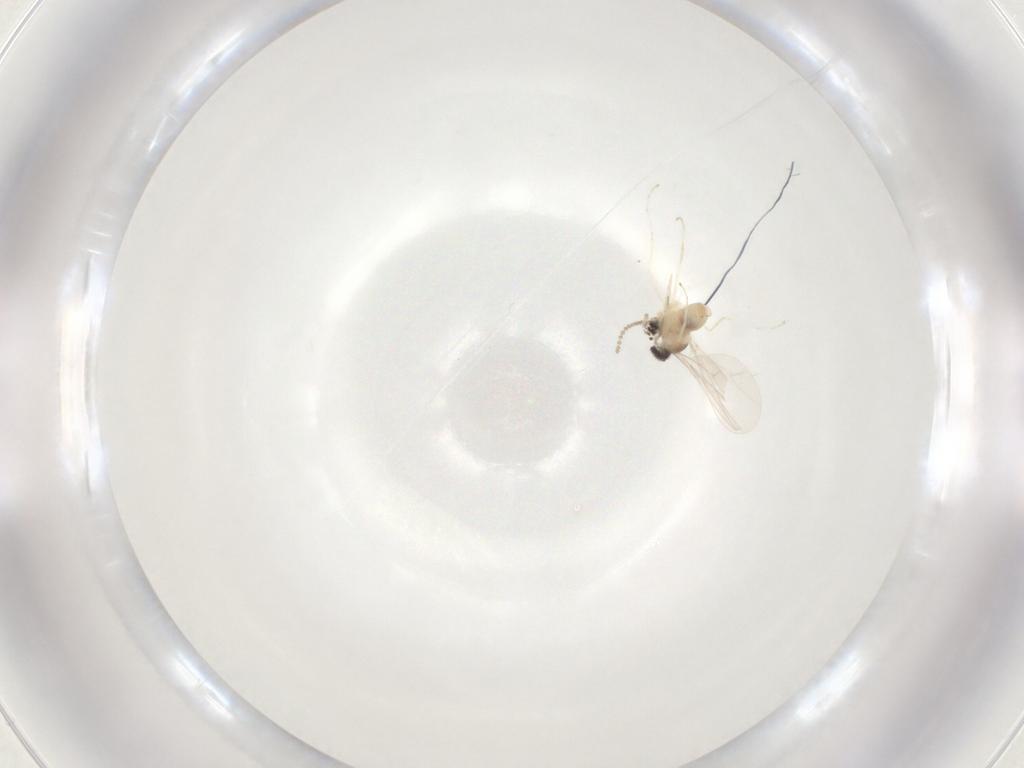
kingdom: Animalia
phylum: Arthropoda
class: Insecta
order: Diptera
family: Cecidomyiidae
